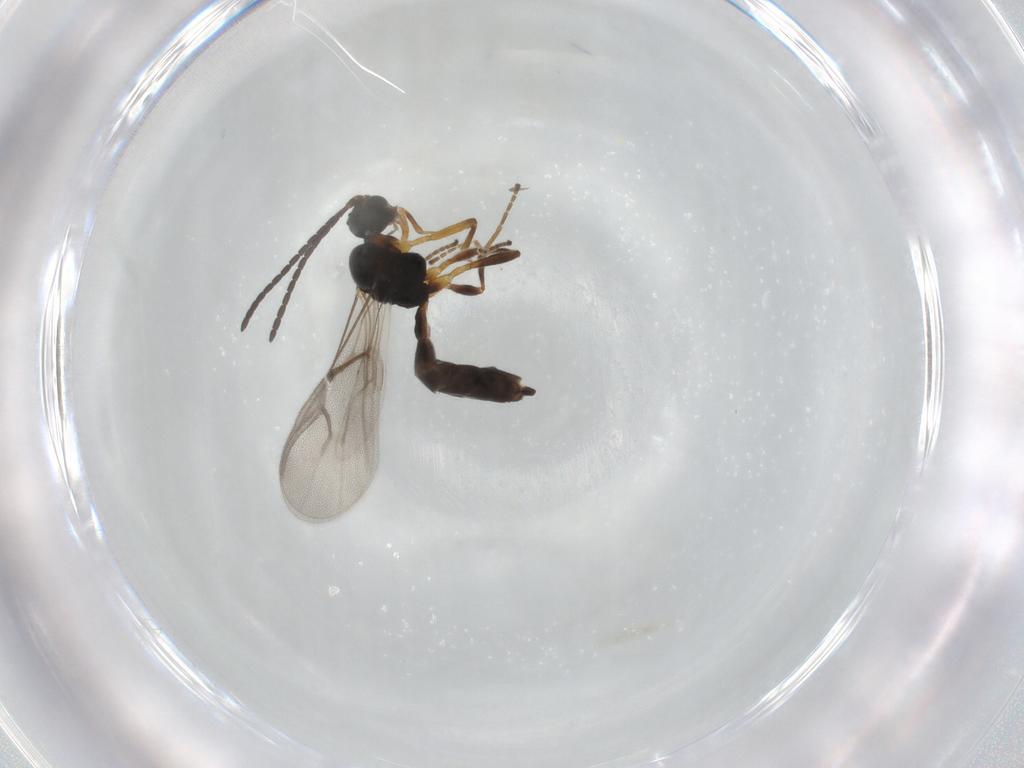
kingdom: Animalia
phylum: Arthropoda
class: Insecta
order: Hymenoptera
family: Braconidae
